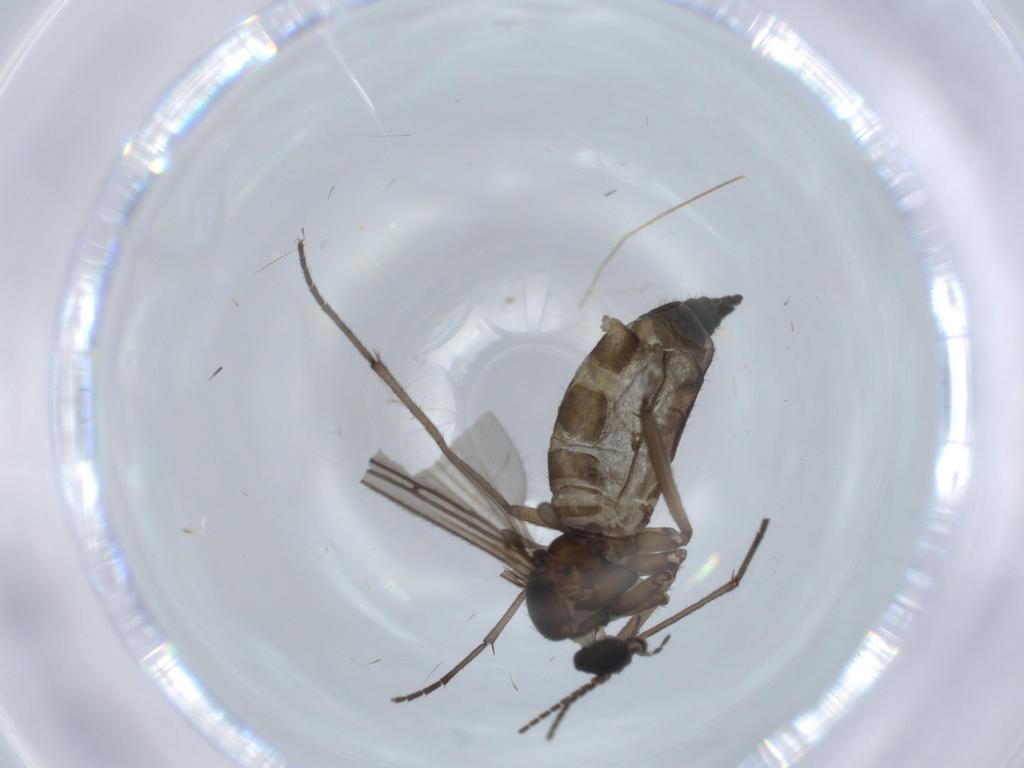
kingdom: Animalia
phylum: Arthropoda
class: Insecta
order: Diptera
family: Sciaridae
